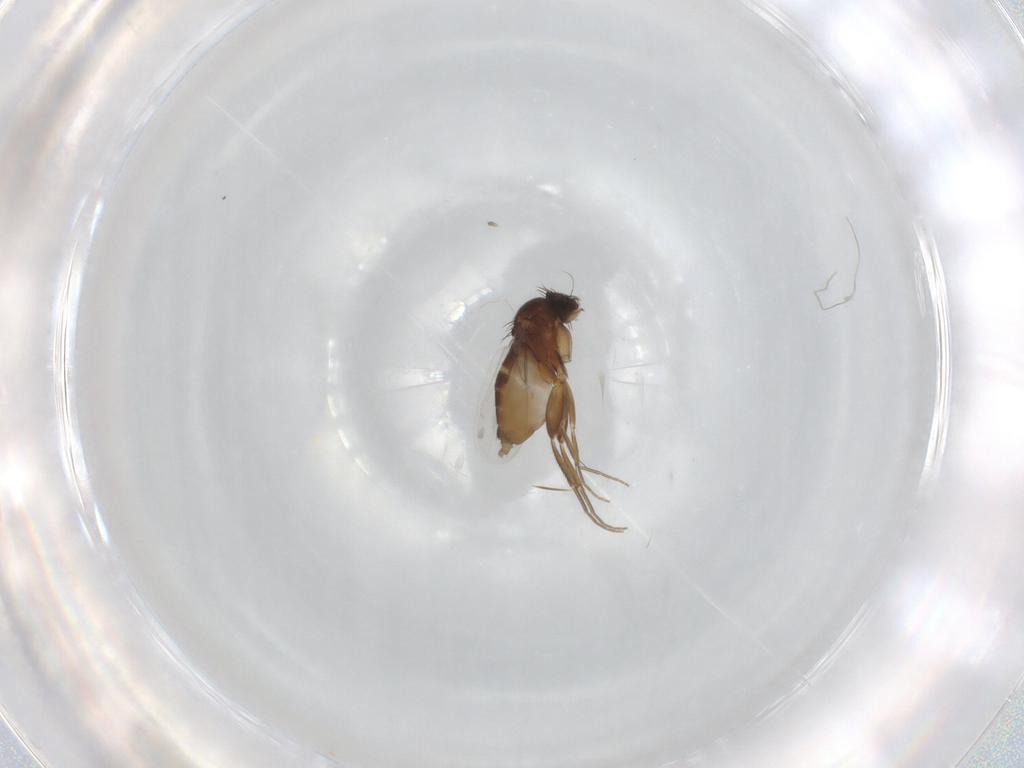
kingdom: Animalia
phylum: Arthropoda
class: Insecta
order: Diptera
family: Phoridae
